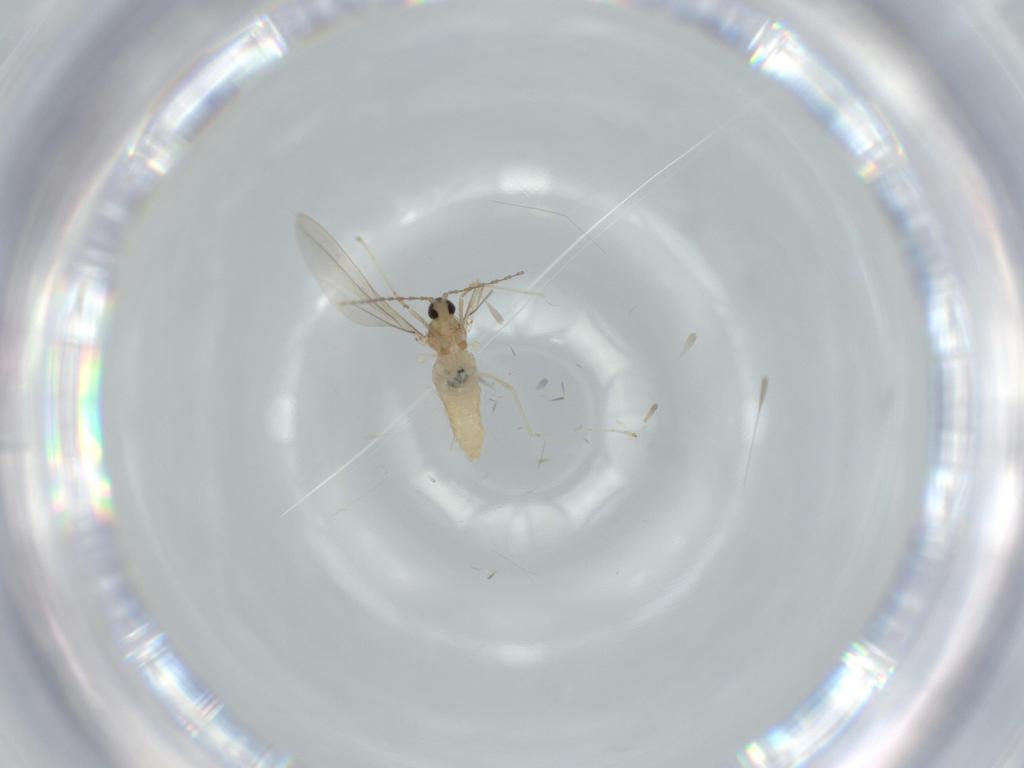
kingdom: Animalia
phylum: Arthropoda
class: Insecta
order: Diptera
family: Cecidomyiidae
